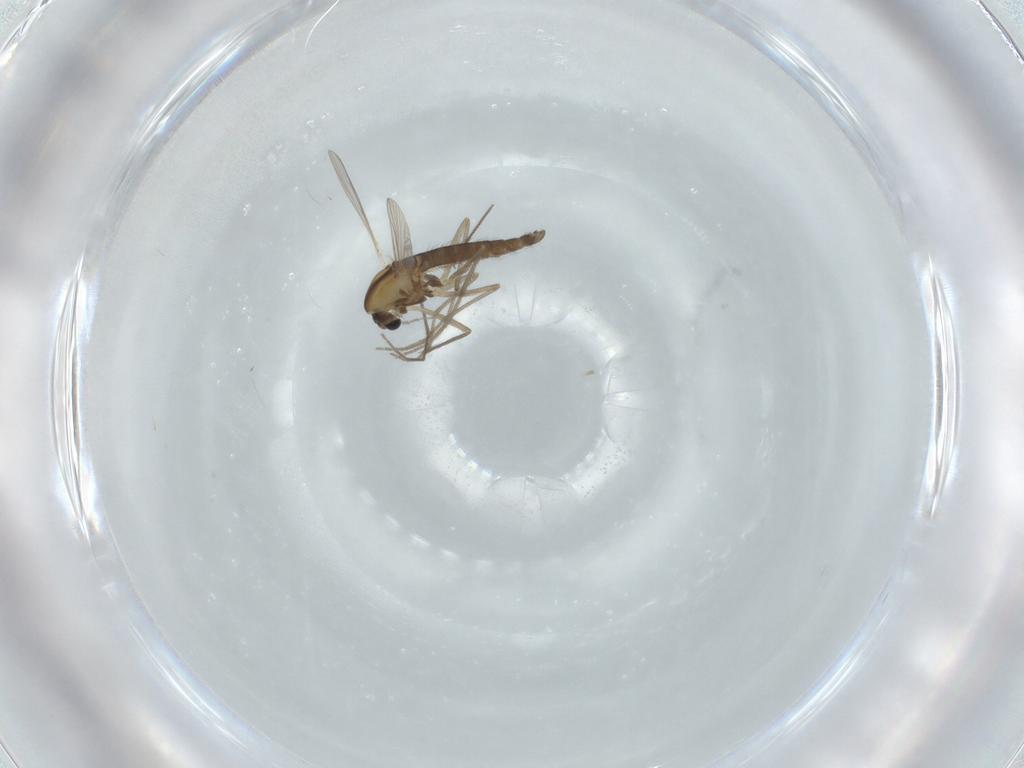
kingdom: Animalia
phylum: Arthropoda
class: Insecta
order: Diptera
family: Chironomidae
